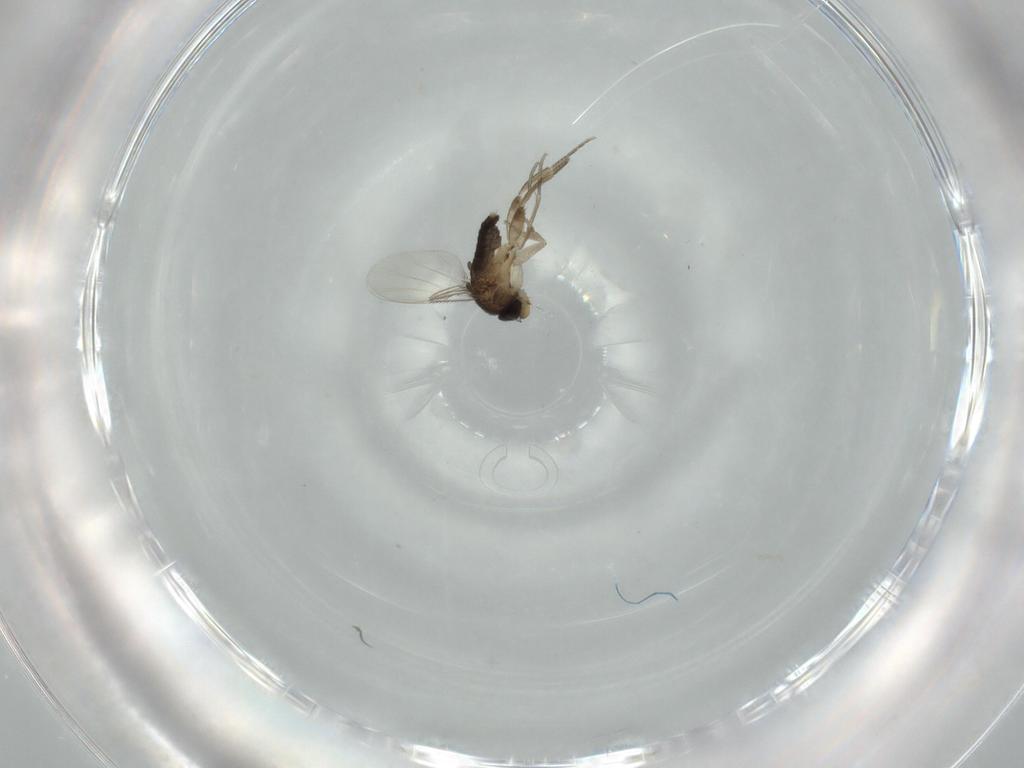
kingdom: Animalia
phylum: Arthropoda
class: Insecta
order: Diptera
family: Phoridae
